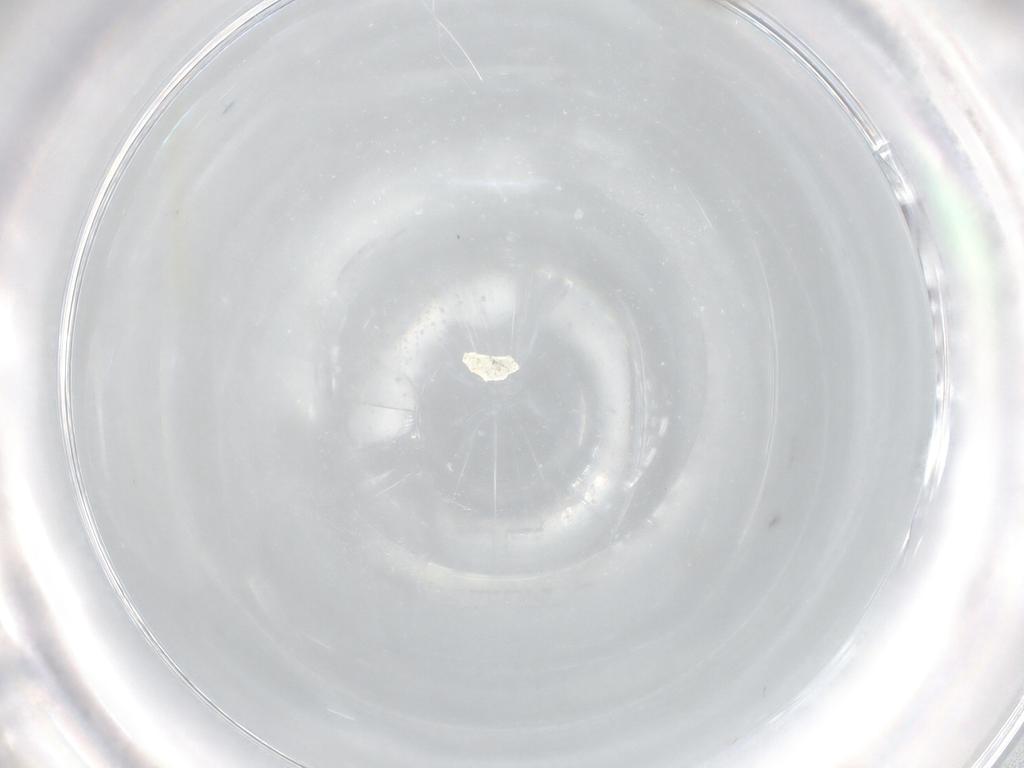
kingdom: Animalia
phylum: Arthropoda
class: Insecta
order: Diptera
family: Cecidomyiidae
